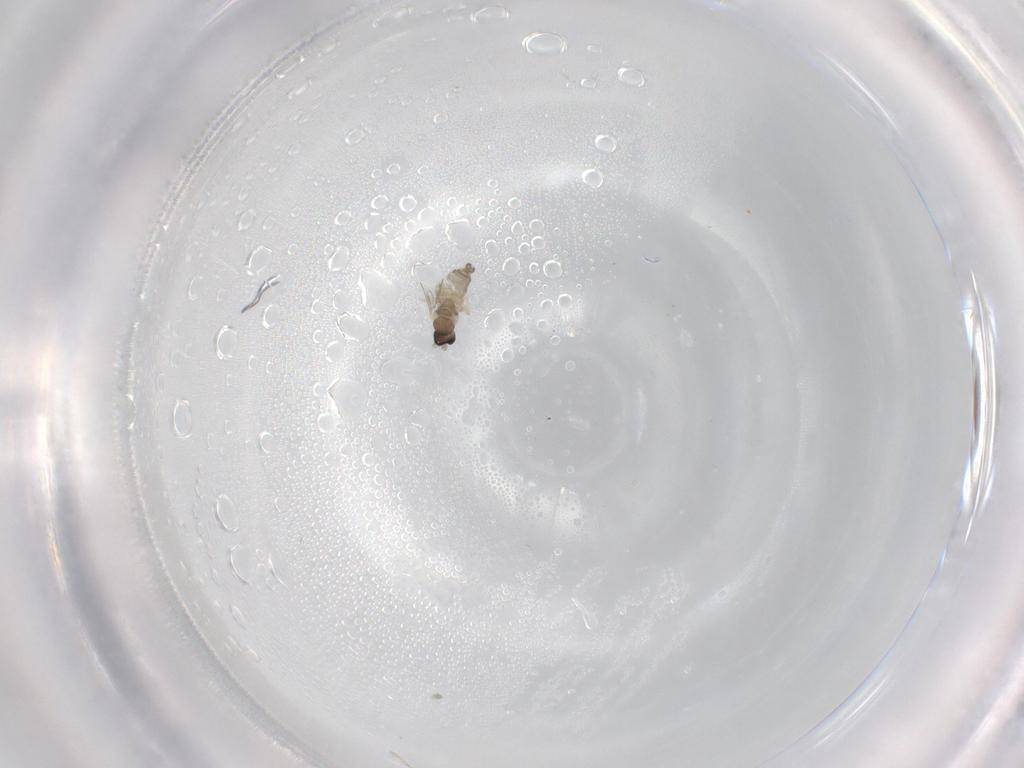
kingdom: Animalia
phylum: Arthropoda
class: Insecta
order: Diptera
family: Cecidomyiidae
